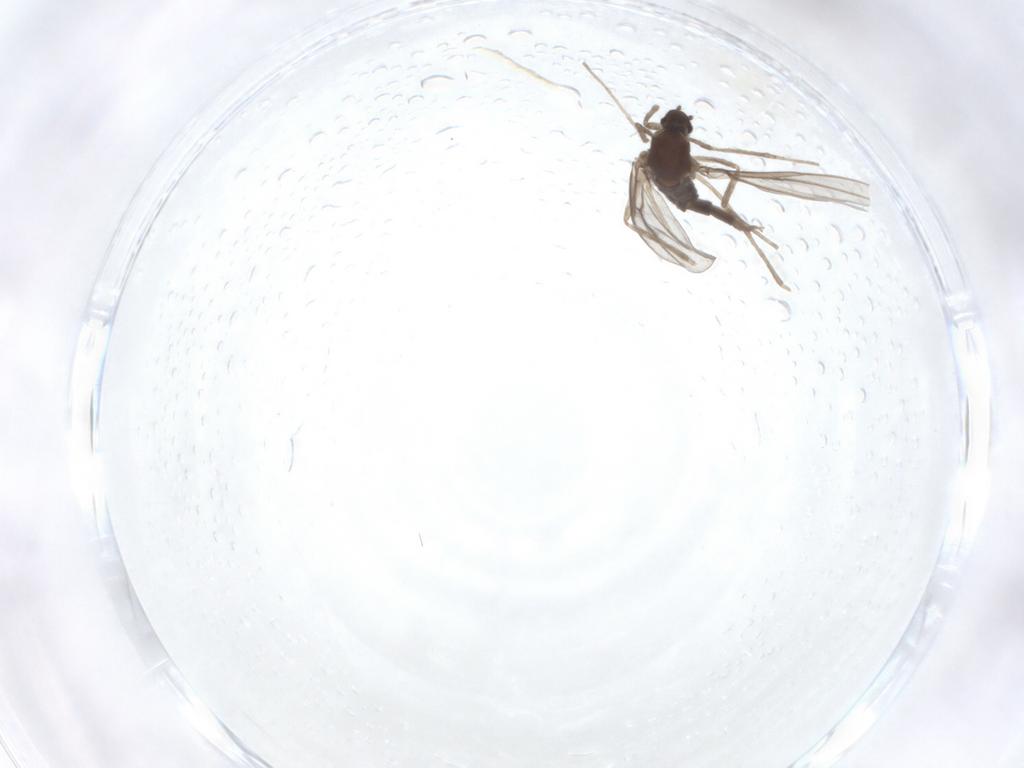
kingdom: Animalia
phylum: Arthropoda
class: Insecta
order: Diptera
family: Cecidomyiidae
